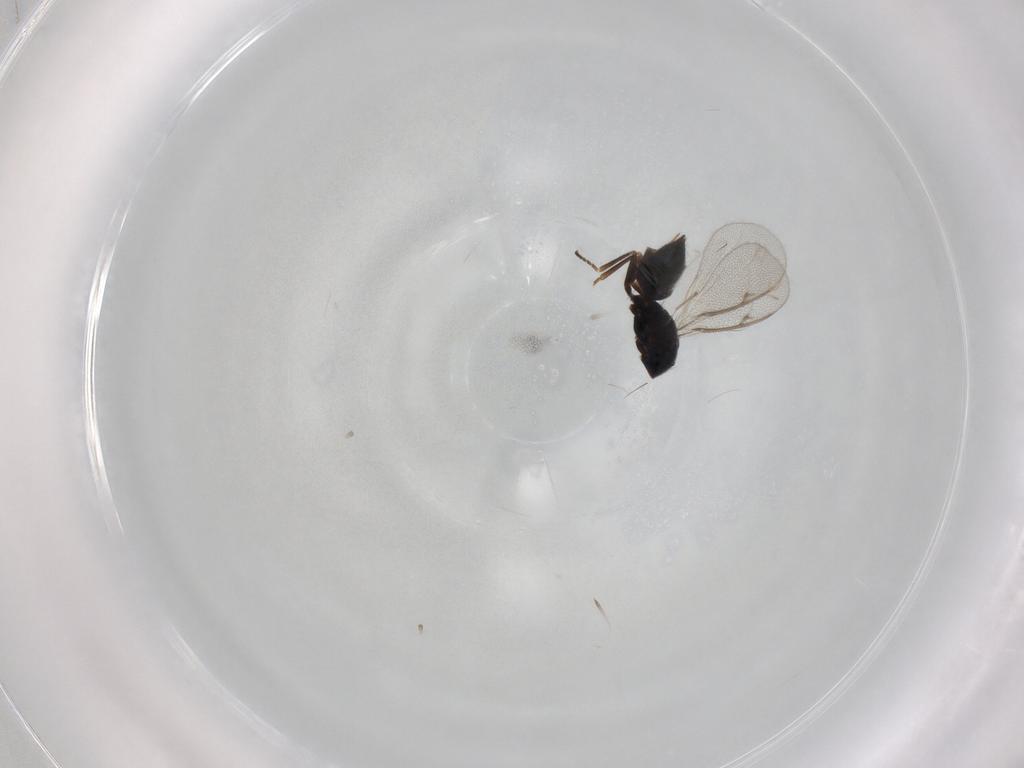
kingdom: Animalia
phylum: Arthropoda
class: Insecta
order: Hymenoptera
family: Tetracampidae
